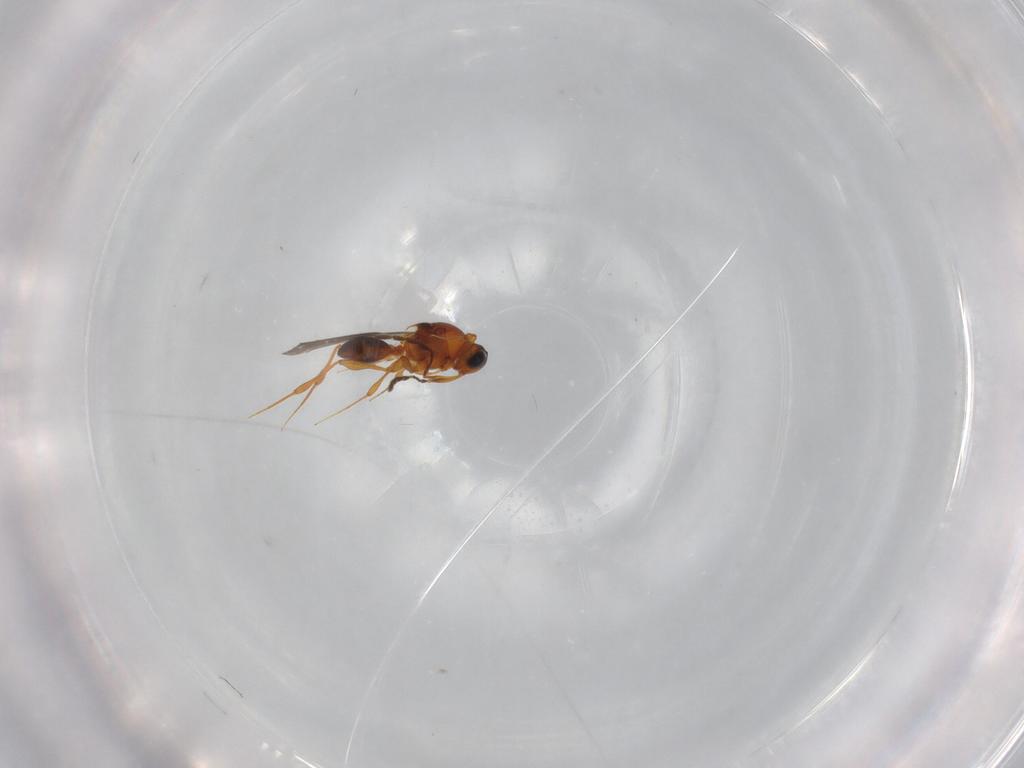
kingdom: Animalia
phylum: Arthropoda
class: Insecta
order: Hymenoptera
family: Platygastridae
